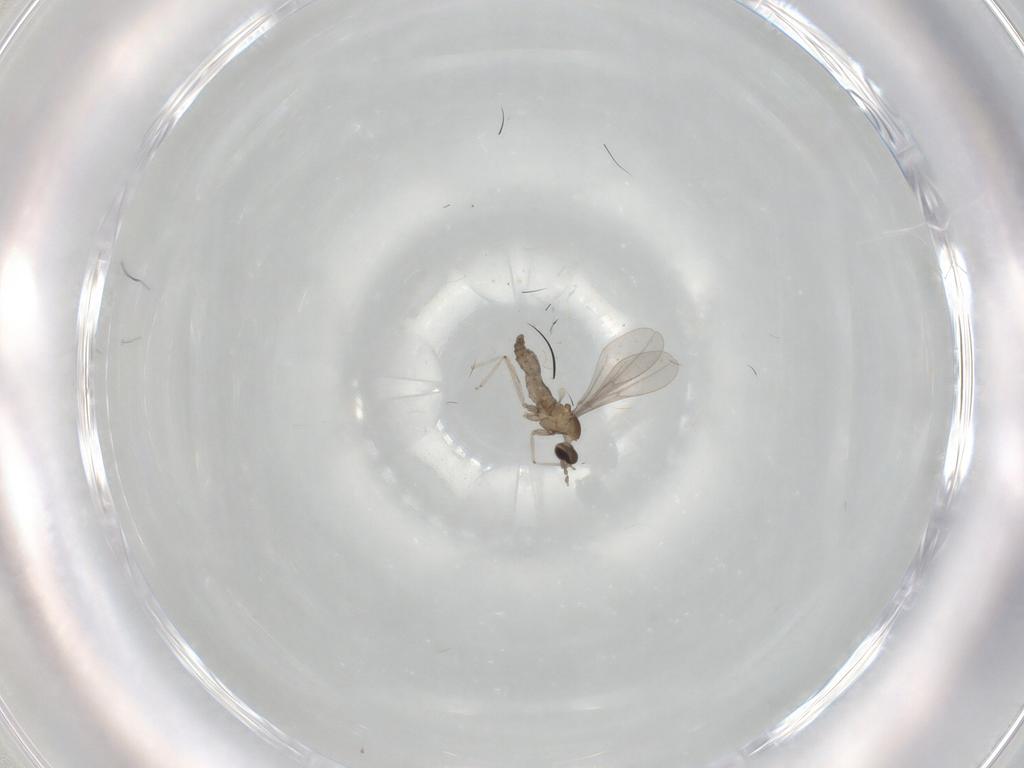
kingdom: Animalia
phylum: Arthropoda
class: Insecta
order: Diptera
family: Cecidomyiidae
